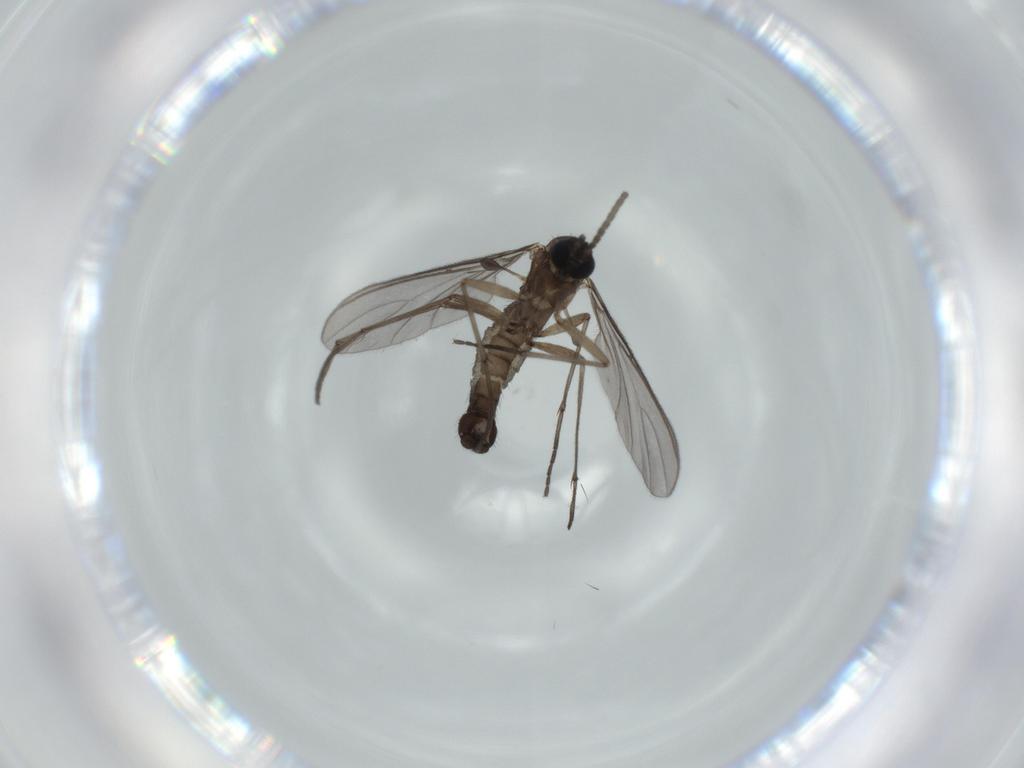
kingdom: Animalia
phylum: Arthropoda
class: Insecta
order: Diptera
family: Sciaridae
